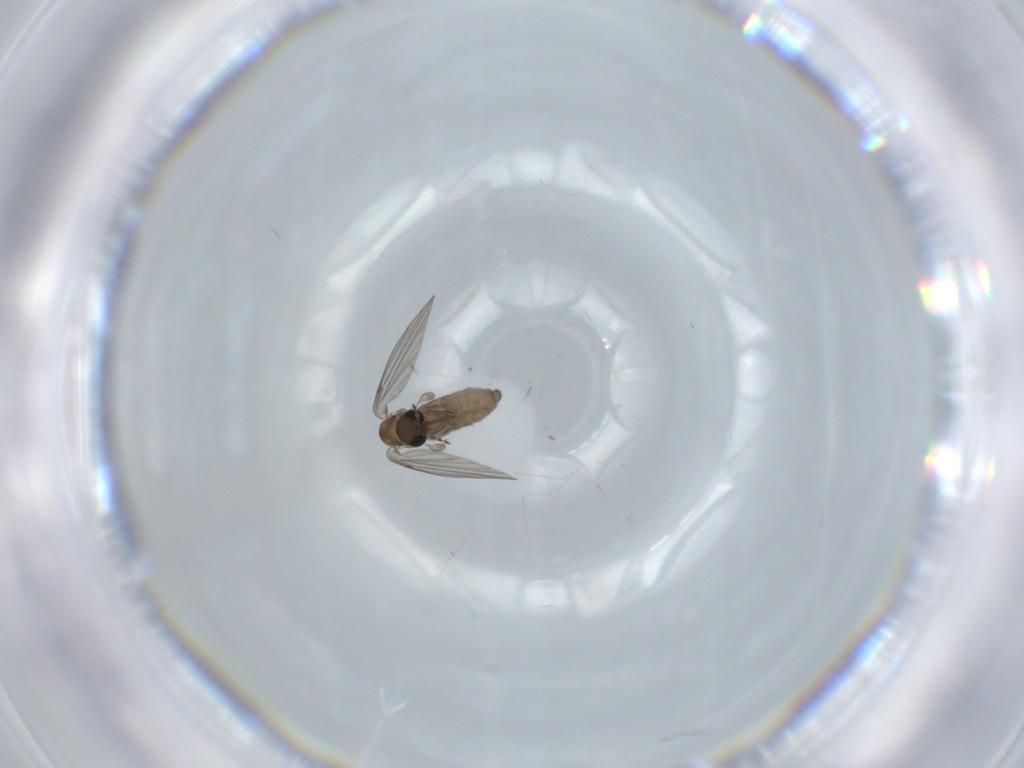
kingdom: Animalia
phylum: Arthropoda
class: Insecta
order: Diptera
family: Psychodidae
